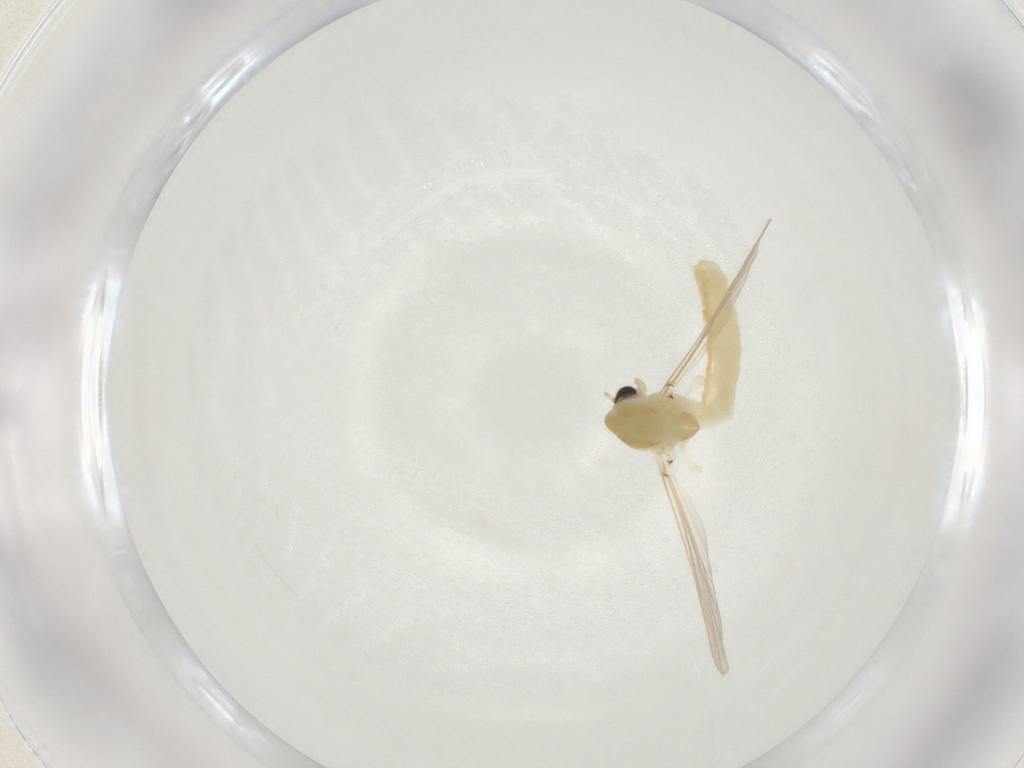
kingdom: Animalia
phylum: Arthropoda
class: Insecta
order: Diptera
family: Chironomidae
